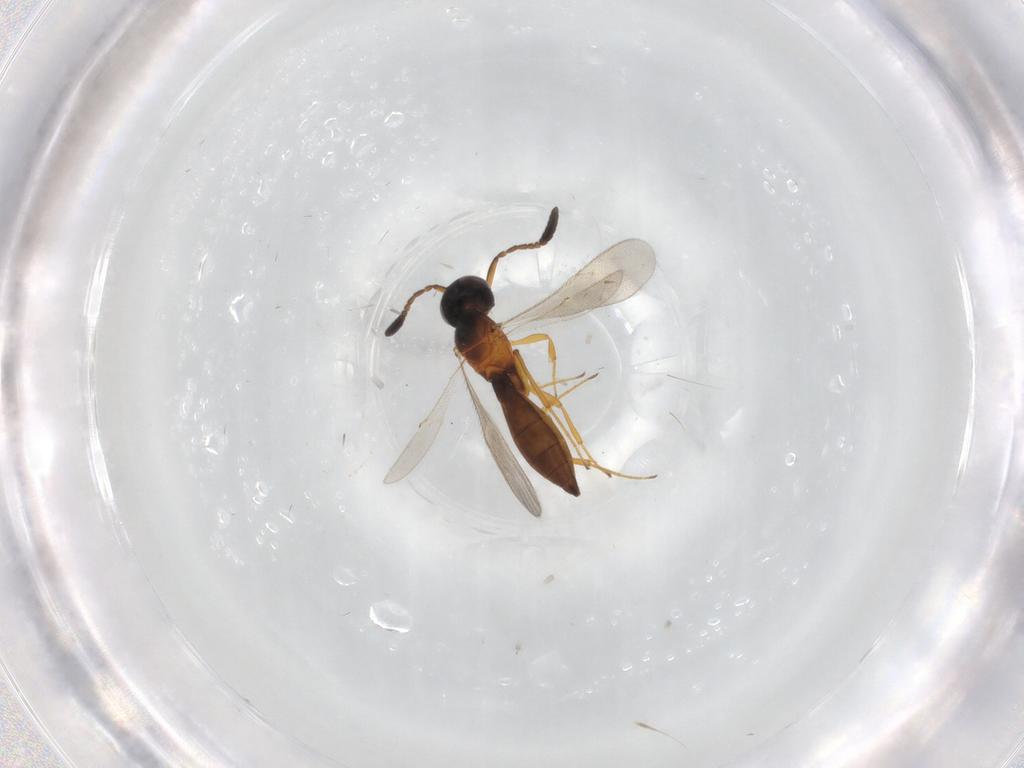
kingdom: Animalia
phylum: Arthropoda
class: Insecta
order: Hymenoptera
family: Scelionidae
